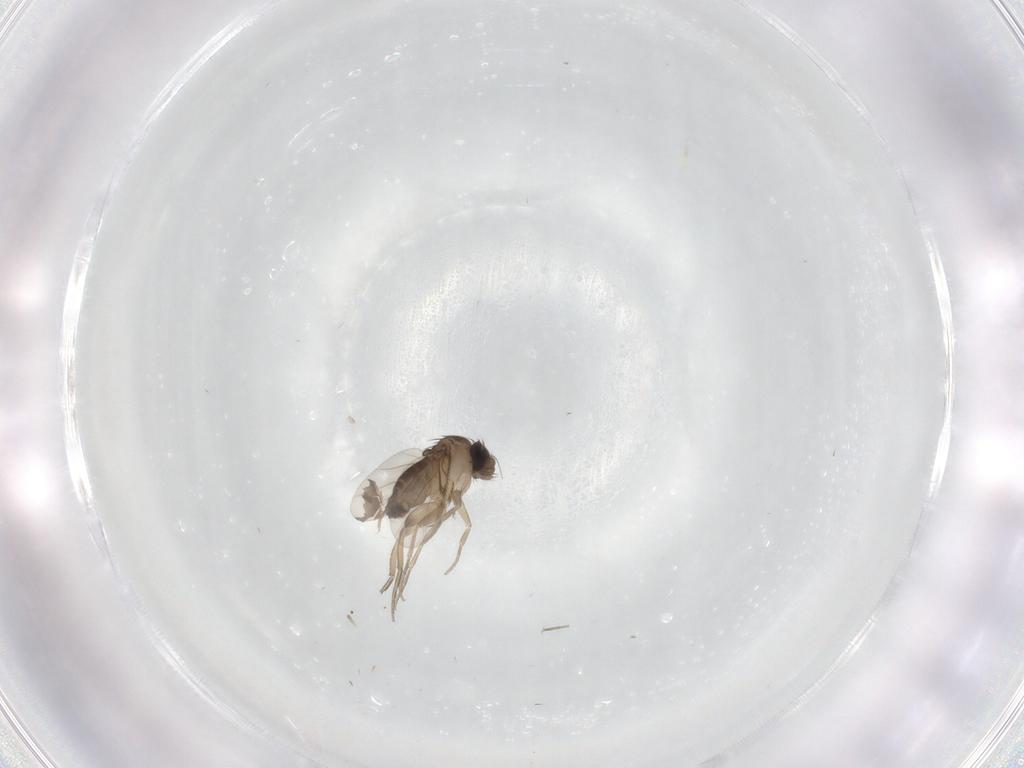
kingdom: Animalia
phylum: Arthropoda
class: Insecta
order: Diptera
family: Phoridae
